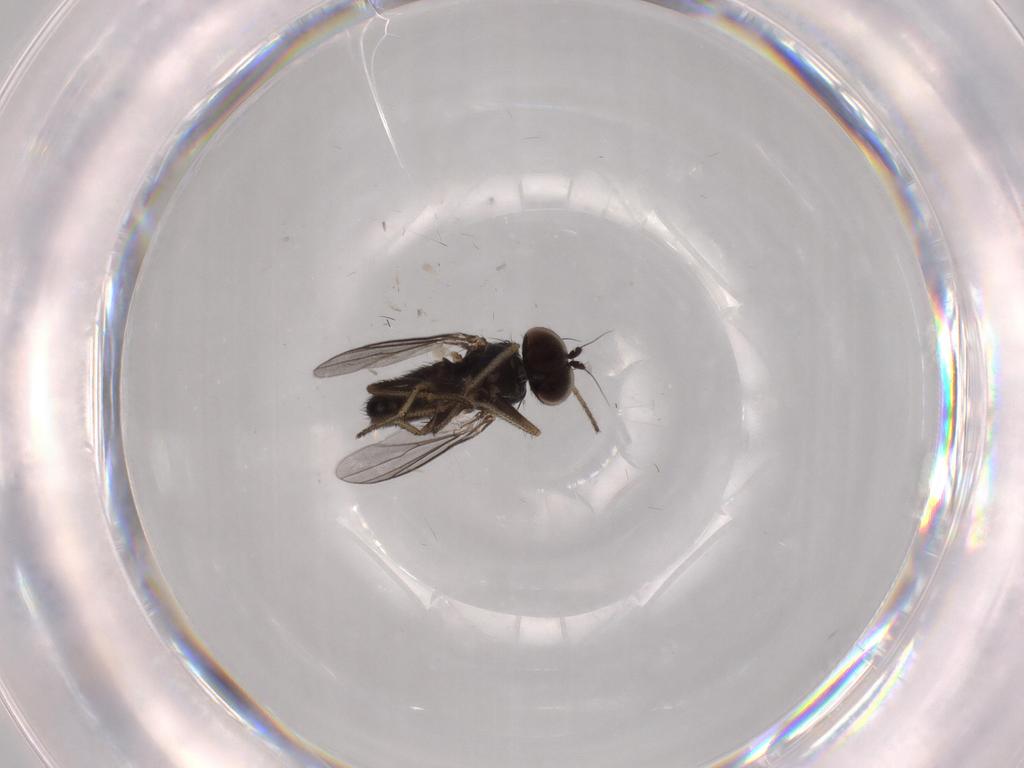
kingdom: Animalia
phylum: Arthropoda
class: Insecta
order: Diptera
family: Dolichopodidae
